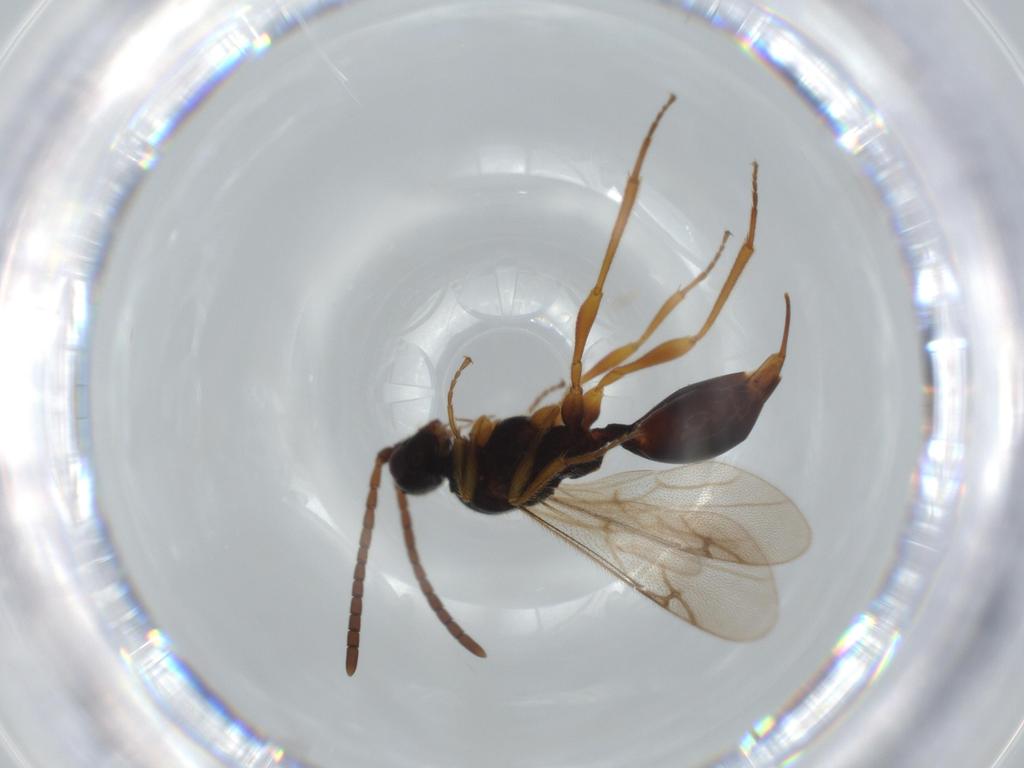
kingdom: Animalia
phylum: Arthropoda
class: Insecta
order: Hymenoptera
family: Proctotrupidae
